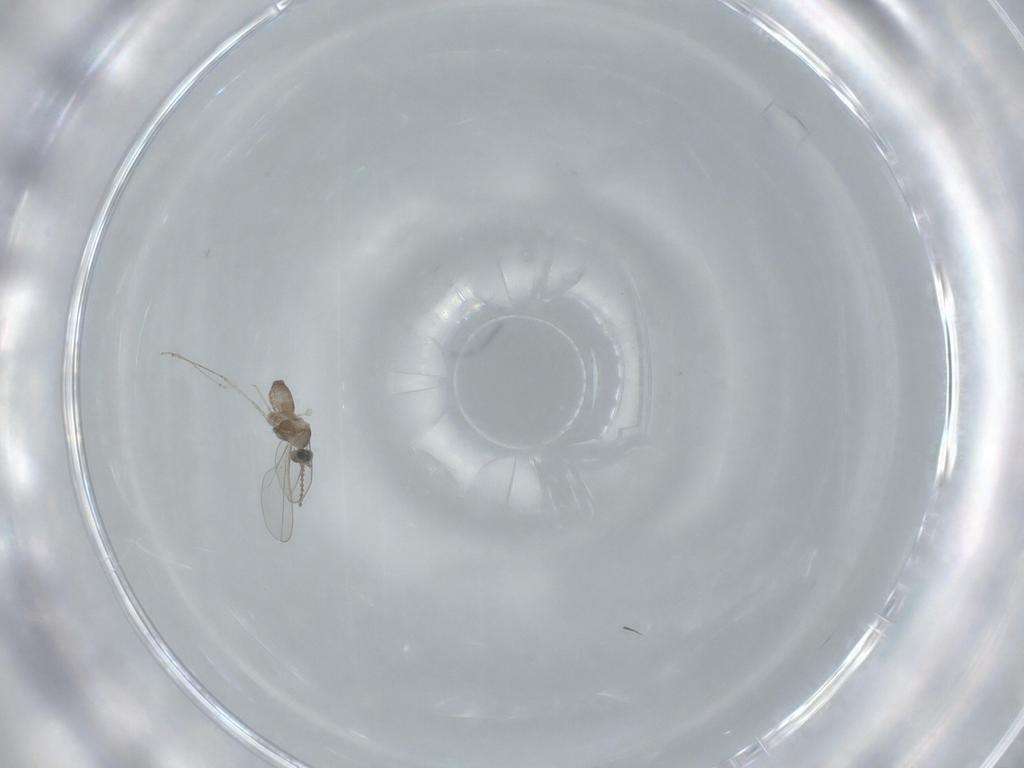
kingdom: Animalia
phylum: Arthropoda
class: Insecta
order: Diptera
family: Cecidomyiidae
